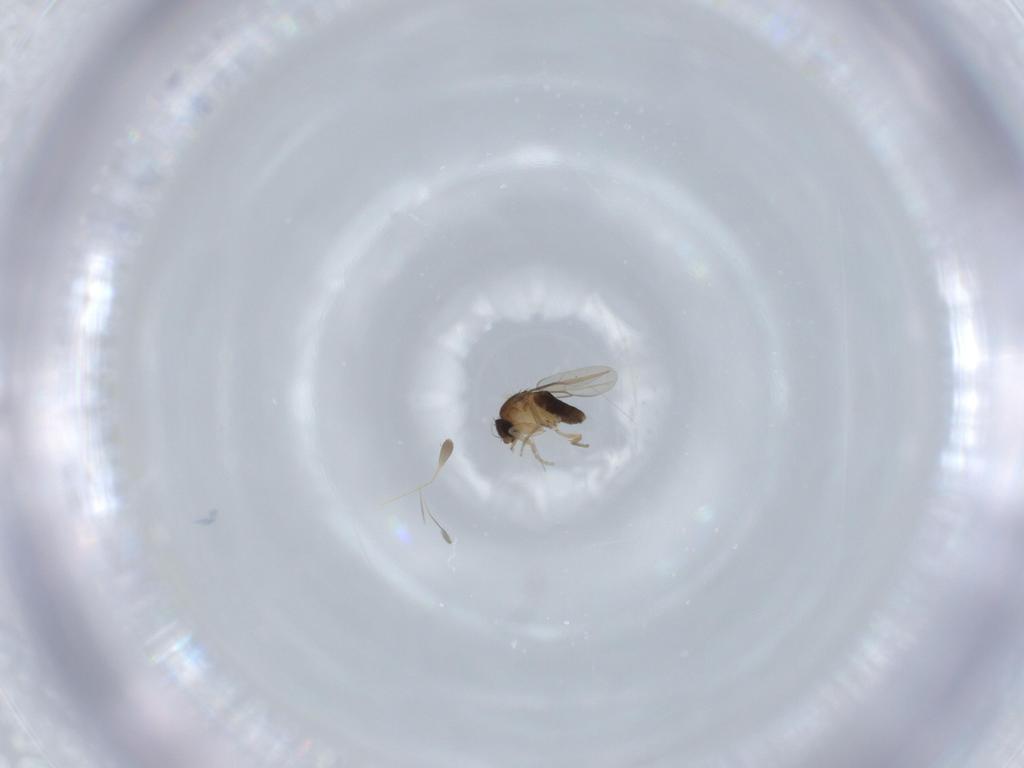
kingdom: Animalia
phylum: Arthropoda
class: Insecta
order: Diptera
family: Phoridae
